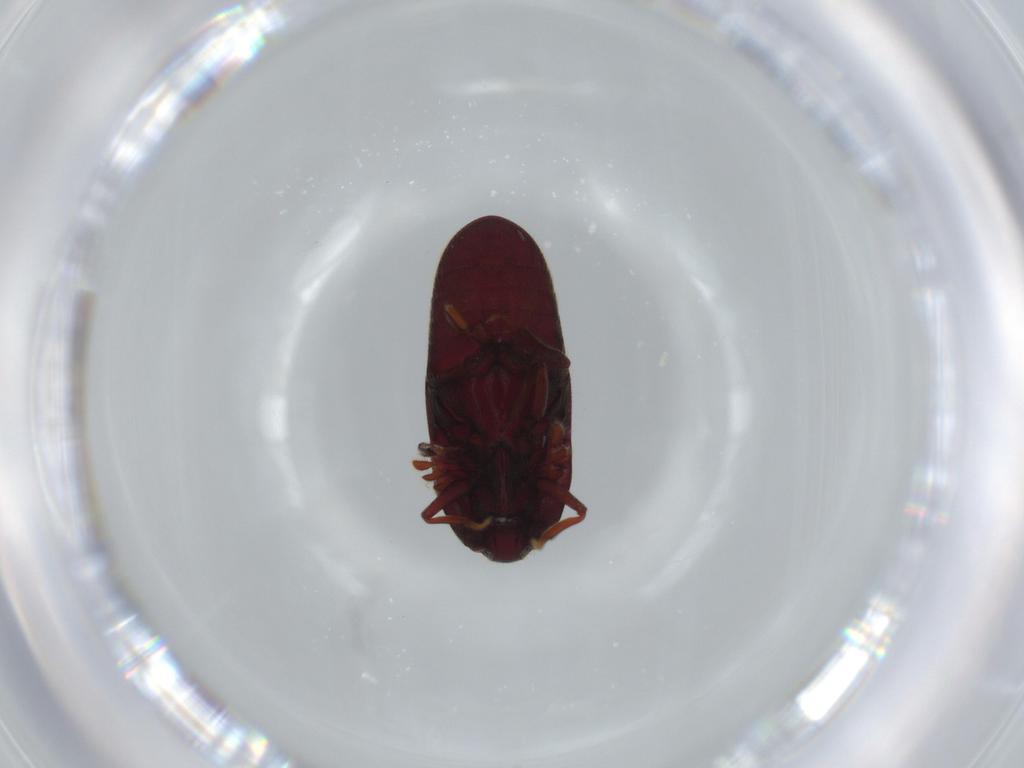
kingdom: Animalia
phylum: Arthropoda
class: Insecta
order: Coleoptera
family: Throscidae
